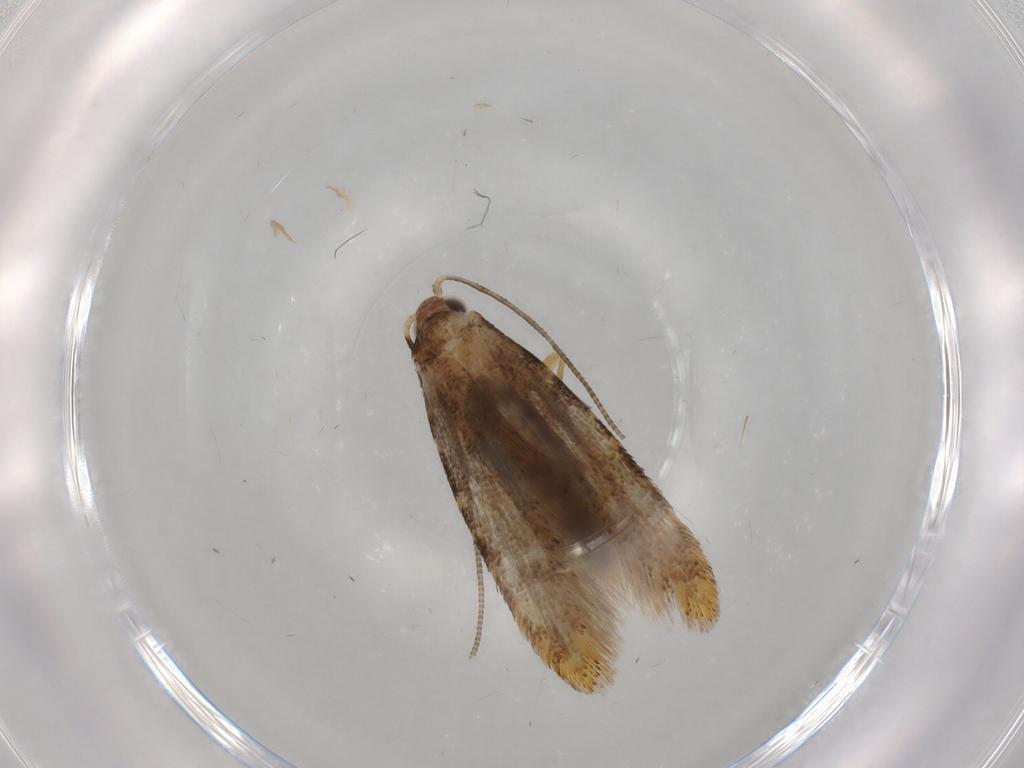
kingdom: Animalia
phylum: Arthropoda
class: Insecta
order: Lepidoptera
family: Tineidae
